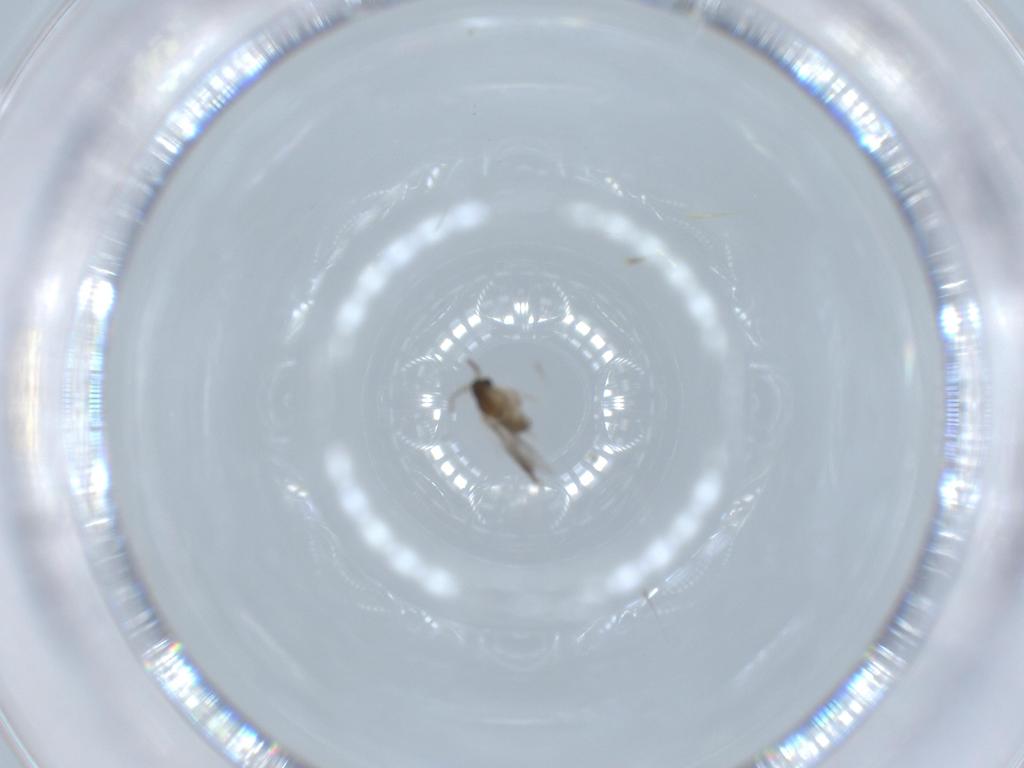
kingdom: Animalia
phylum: Arthropoda
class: Insecta
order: Diptera
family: Cecidomyiidae
